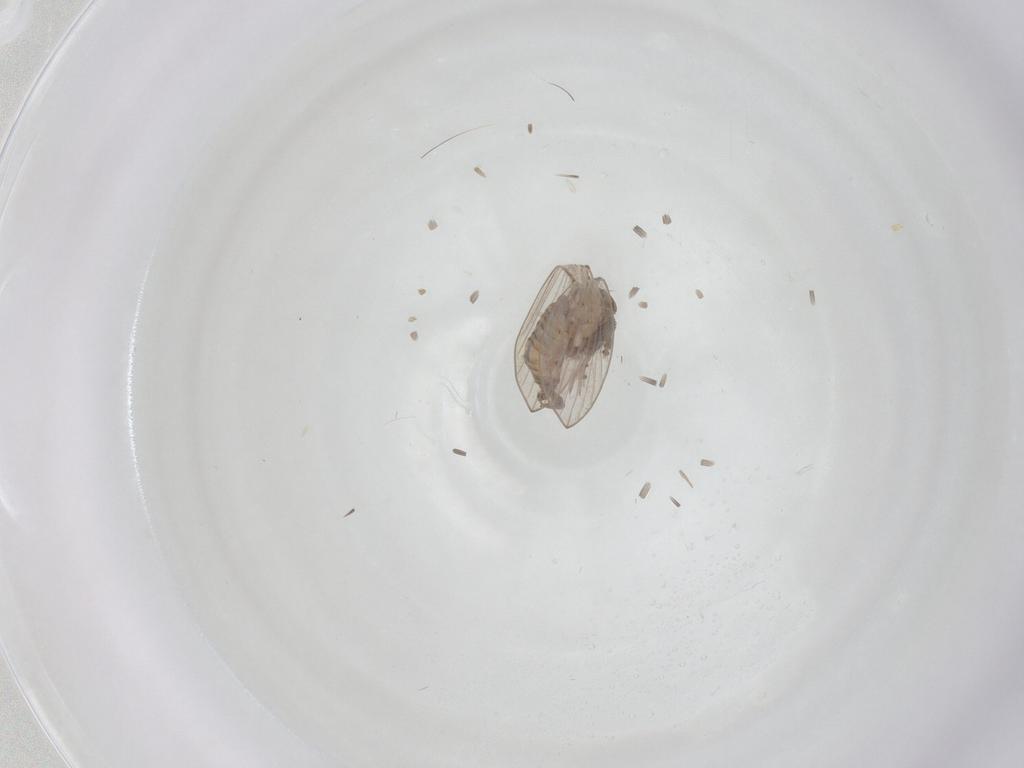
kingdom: Animalia
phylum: Arthropoda
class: Insecta
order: Diptera
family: Psychodidae
